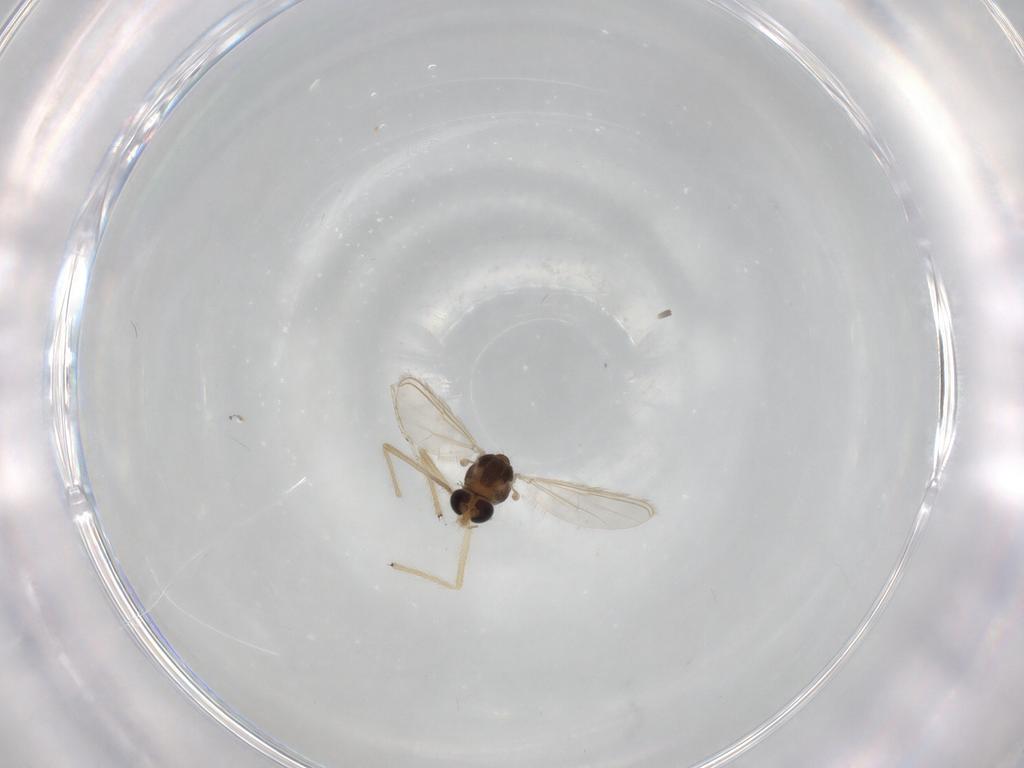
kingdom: Animalia
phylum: Arthropoda
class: Insecta
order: Diptera
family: Chironomidae
